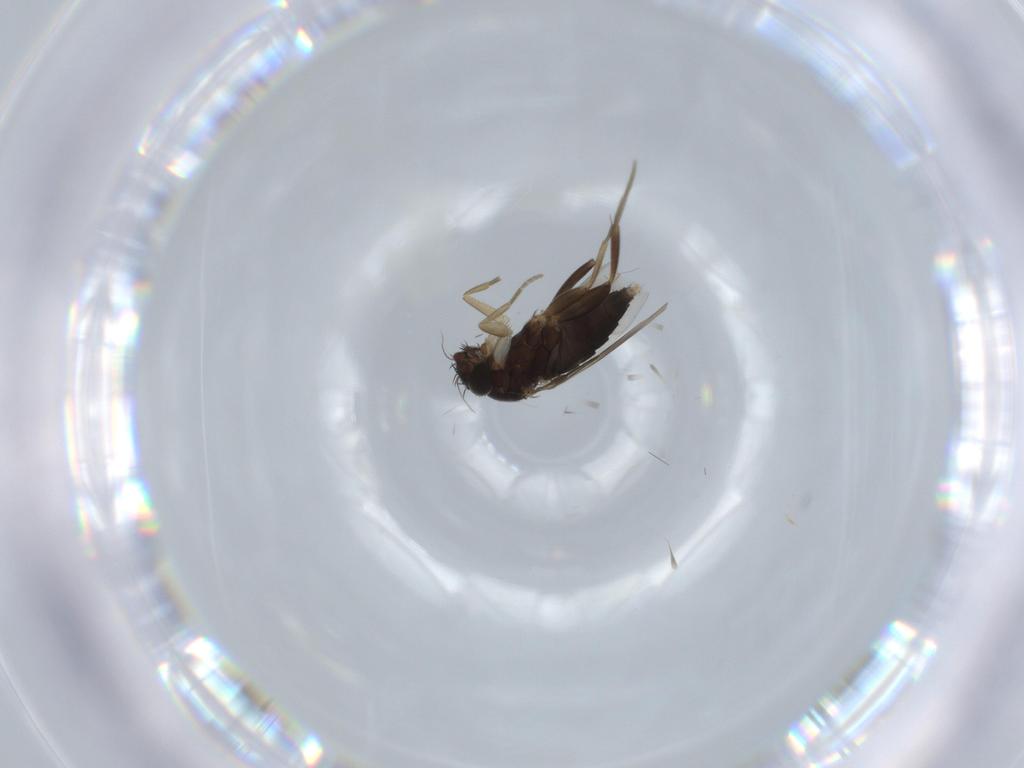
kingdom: Animalia
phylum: Arthropoda
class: Insecta
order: Diptera
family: Phoridae
